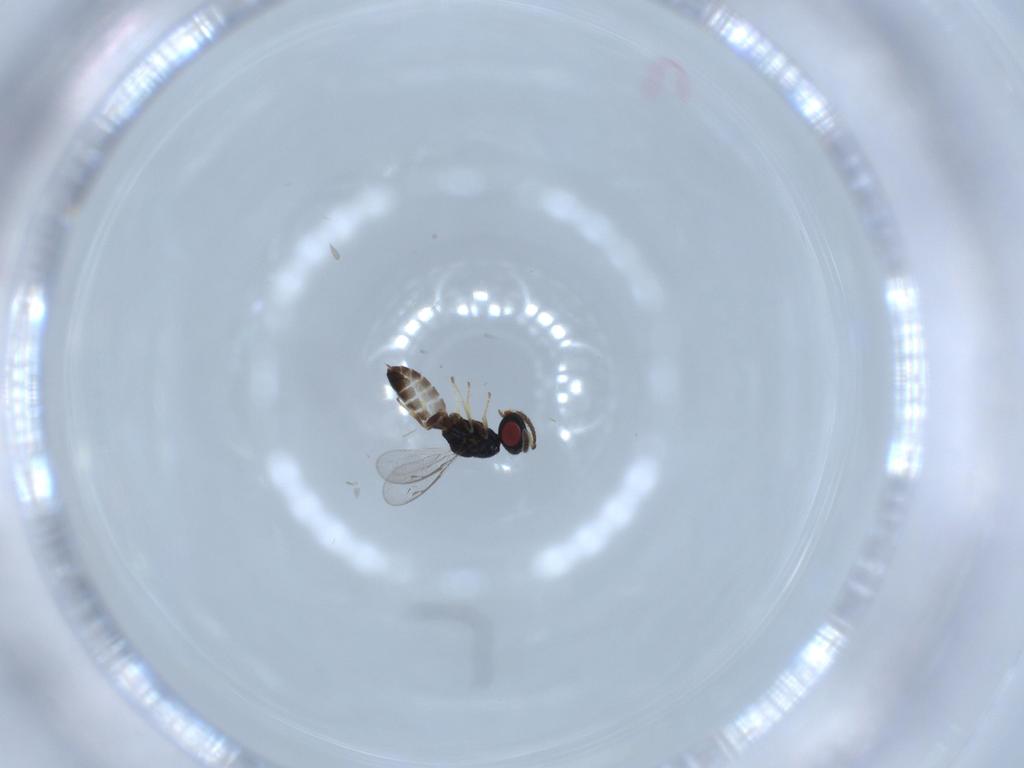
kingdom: Animalia
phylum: Arthropoda
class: Insecta
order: Hymenoptera
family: Pteromalidae
